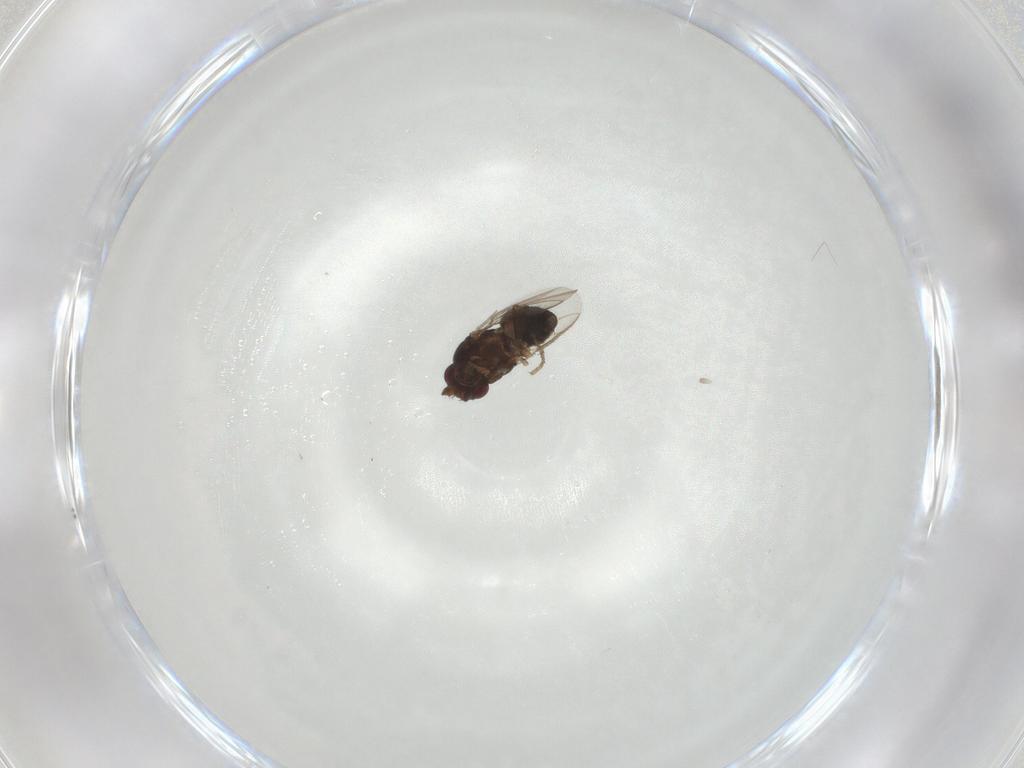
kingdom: Animalia
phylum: Arthropoda
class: Insecta
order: Diptera
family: Sphaeroceridae
